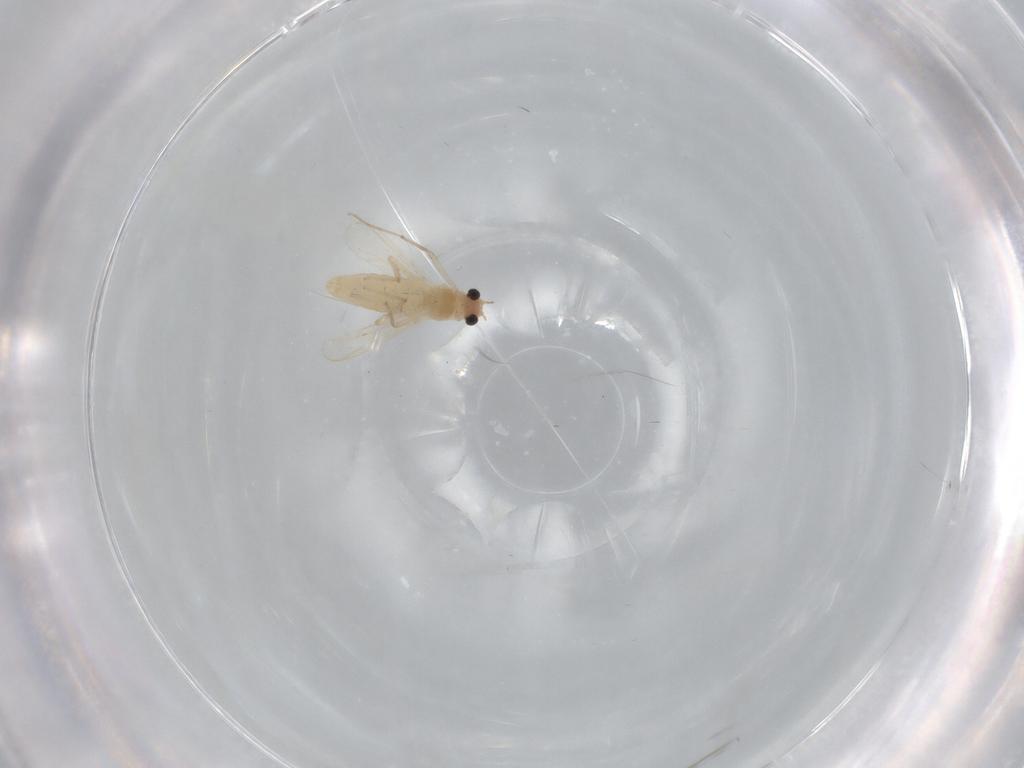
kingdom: Animalia
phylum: Arthropoda
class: Insecta
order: Diptera
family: Chironomidae
